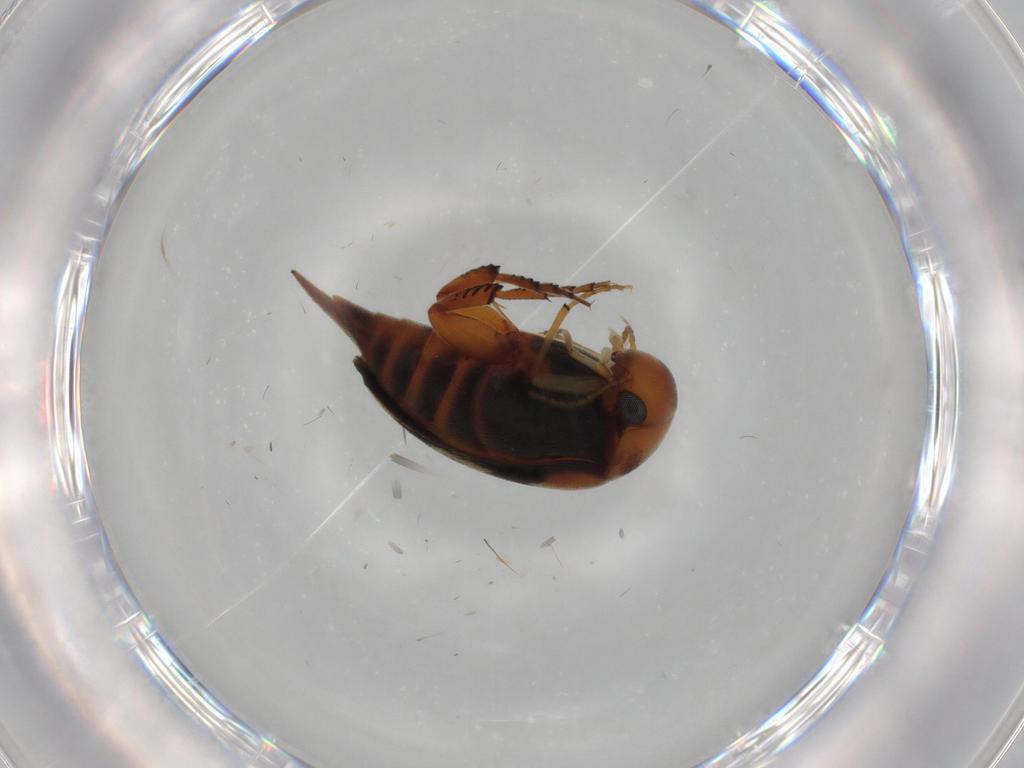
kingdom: Animalia
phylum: Arthropoda
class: Insecta
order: Coleoptera
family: Mordellidae
